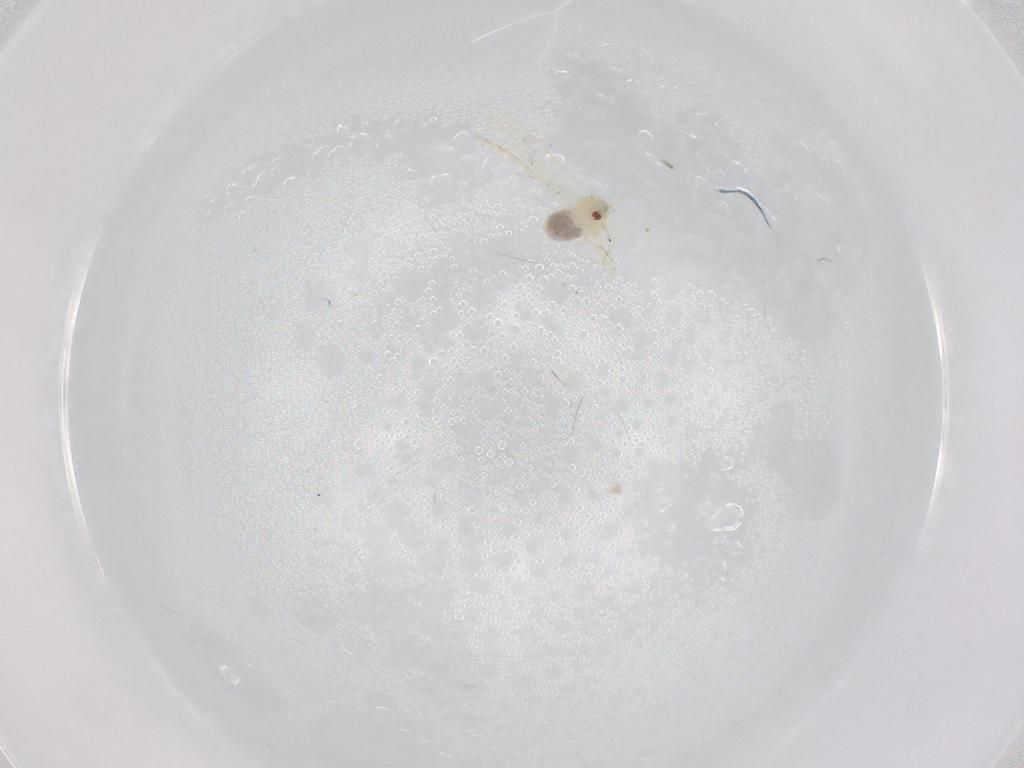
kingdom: Animalia
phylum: Arthropoda
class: Insecta
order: Hemiptera
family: Aleyrodidae
